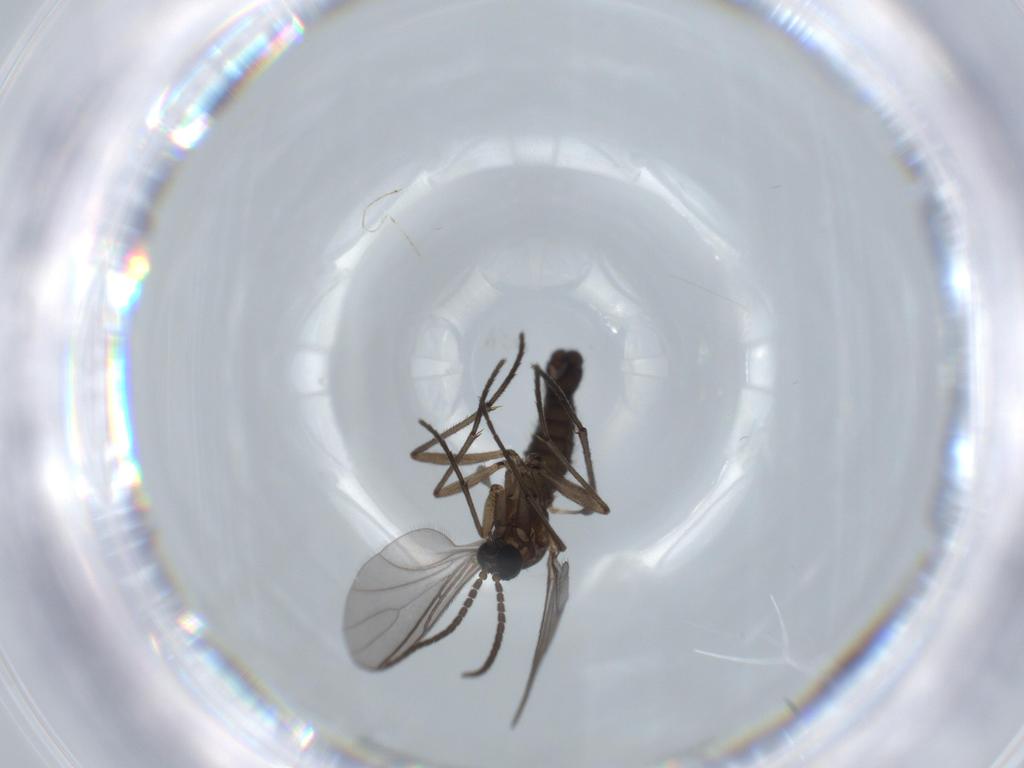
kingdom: Animalia
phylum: Arthropoda
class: Insecta
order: Diptera
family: Sciaridae
